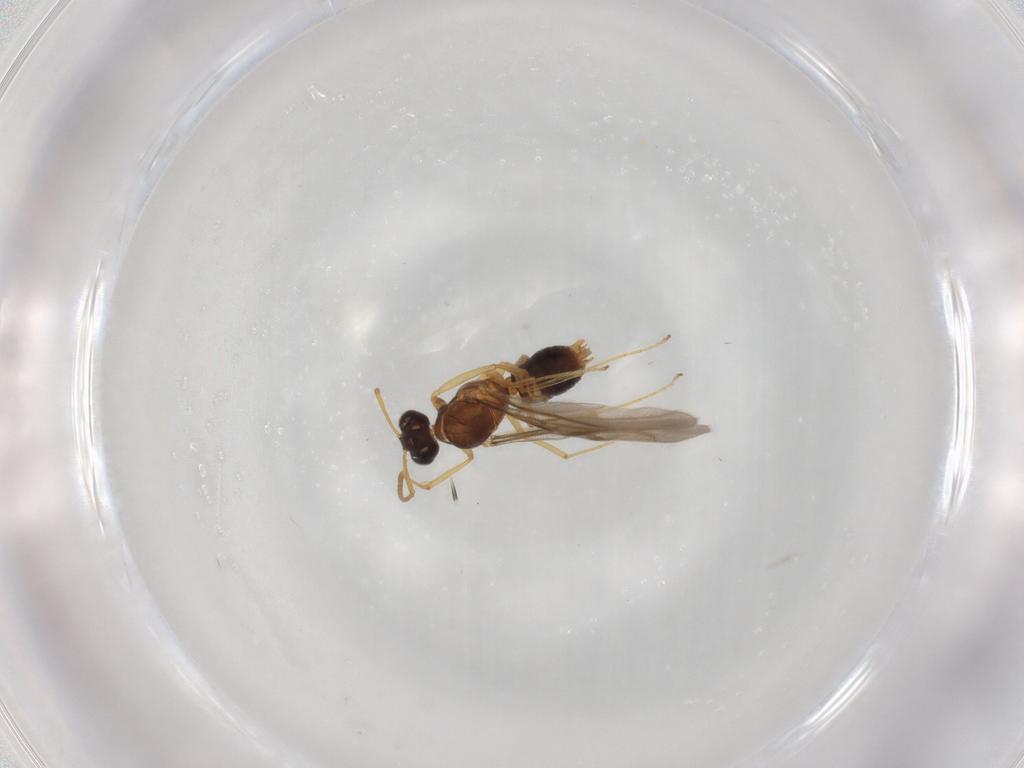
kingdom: Animalia
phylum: Arthropoda
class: Insecta
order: Hymenoptera
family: Formicidae
